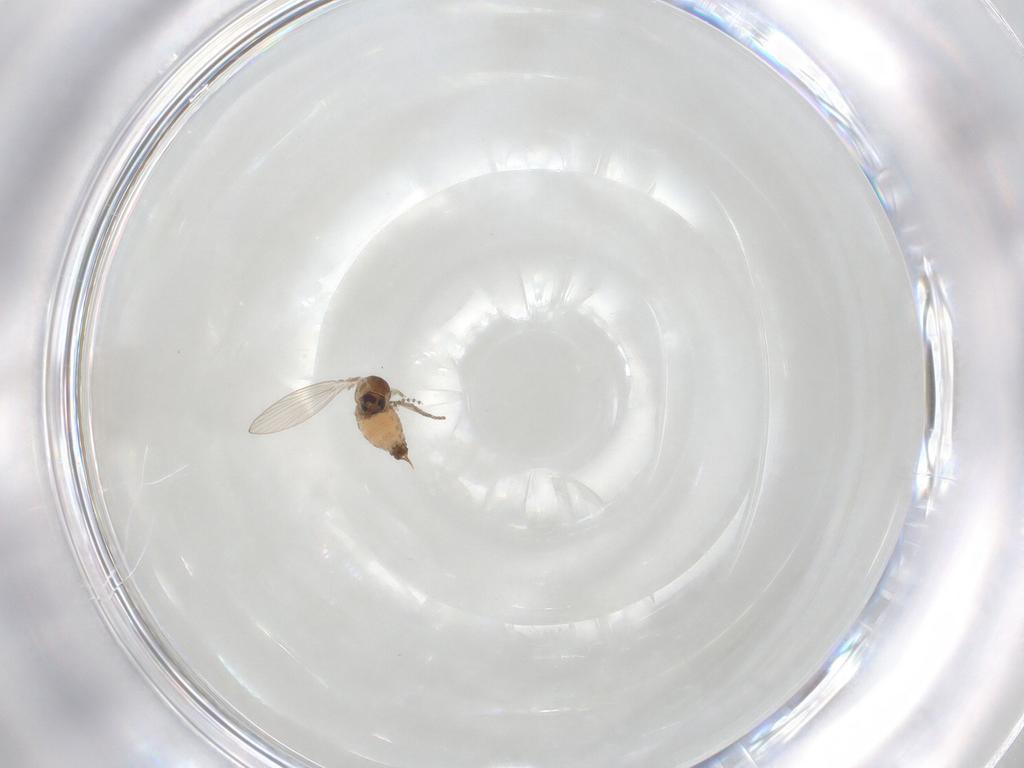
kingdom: Animalia
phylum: Arthropoda
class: Insecta
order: Diptera
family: Psychodidae
